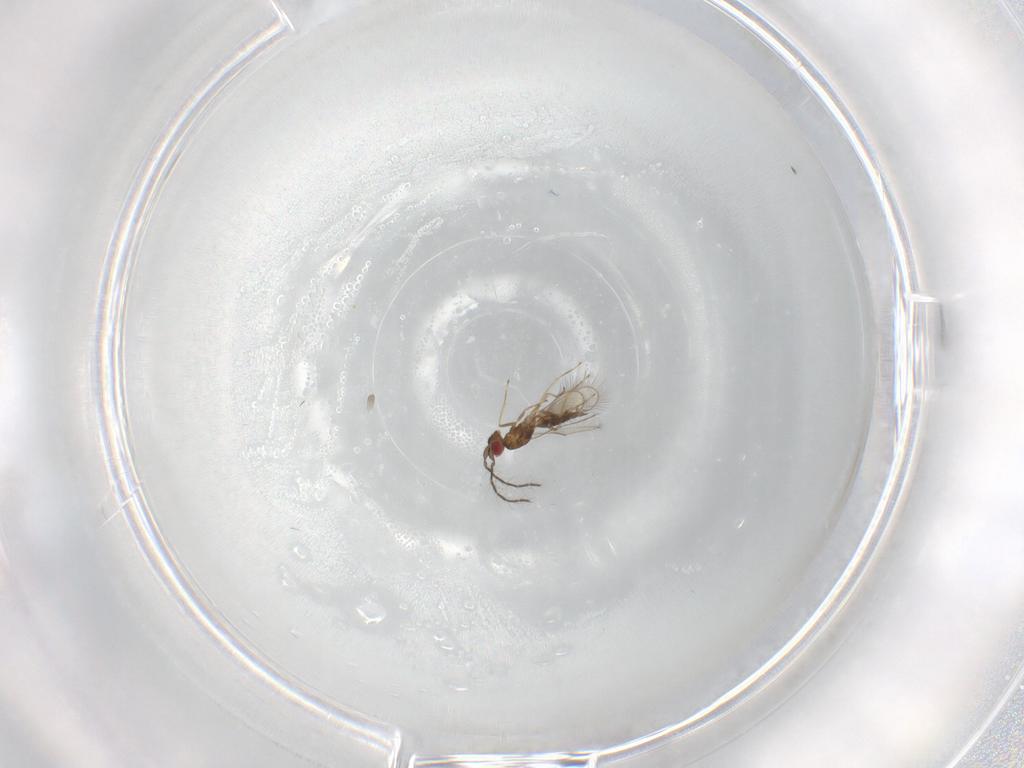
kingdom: Animalia
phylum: Arthropoda
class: Insecta
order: Hymenoptera
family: Eulophidae
